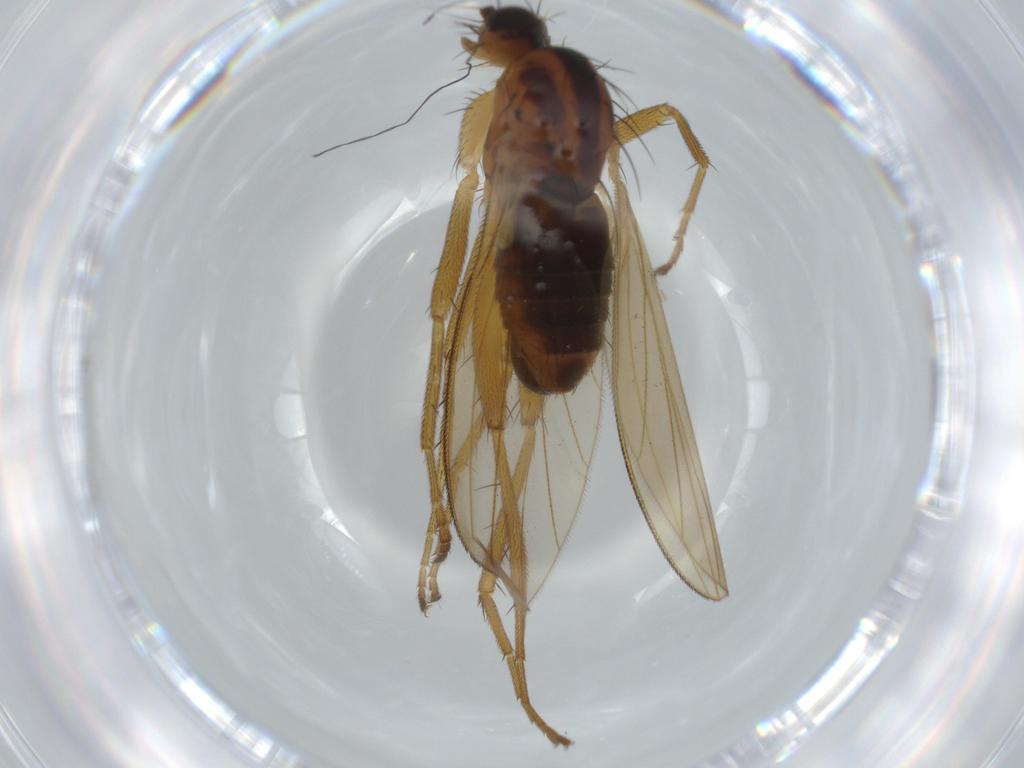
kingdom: Animalia
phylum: Arthropoda
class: Insecta
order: Diptera
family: Lonchopteridae
